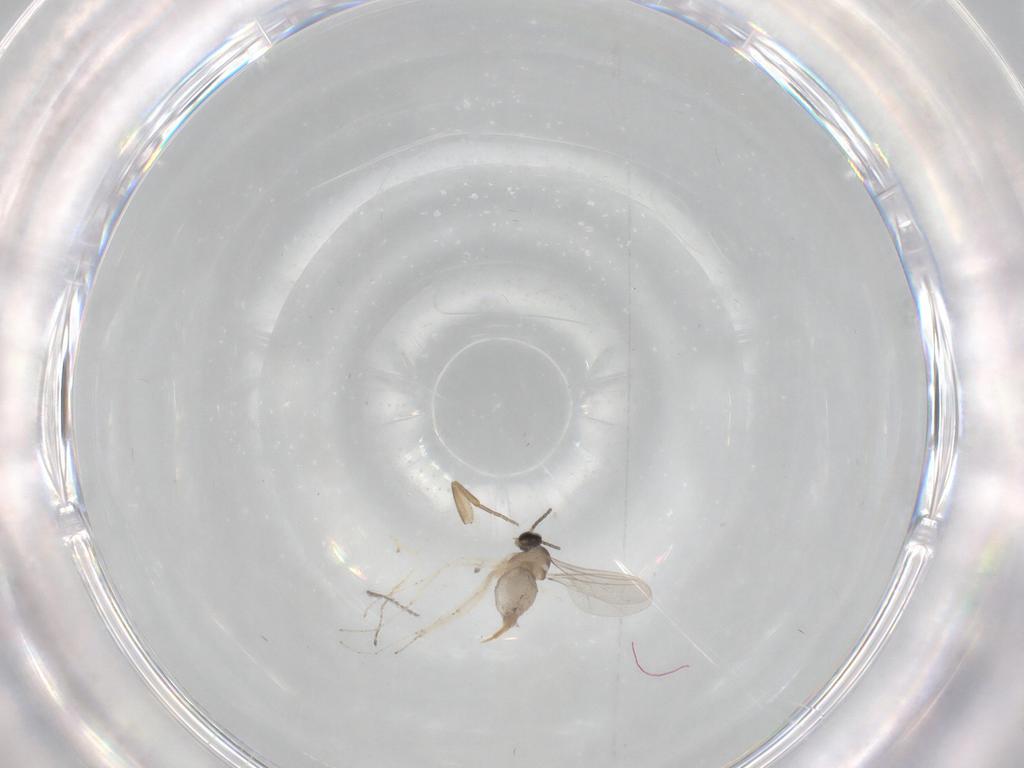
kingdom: Animalia
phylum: Arthropoda
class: Insecta
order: Diptera
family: Cecidomyiidae
